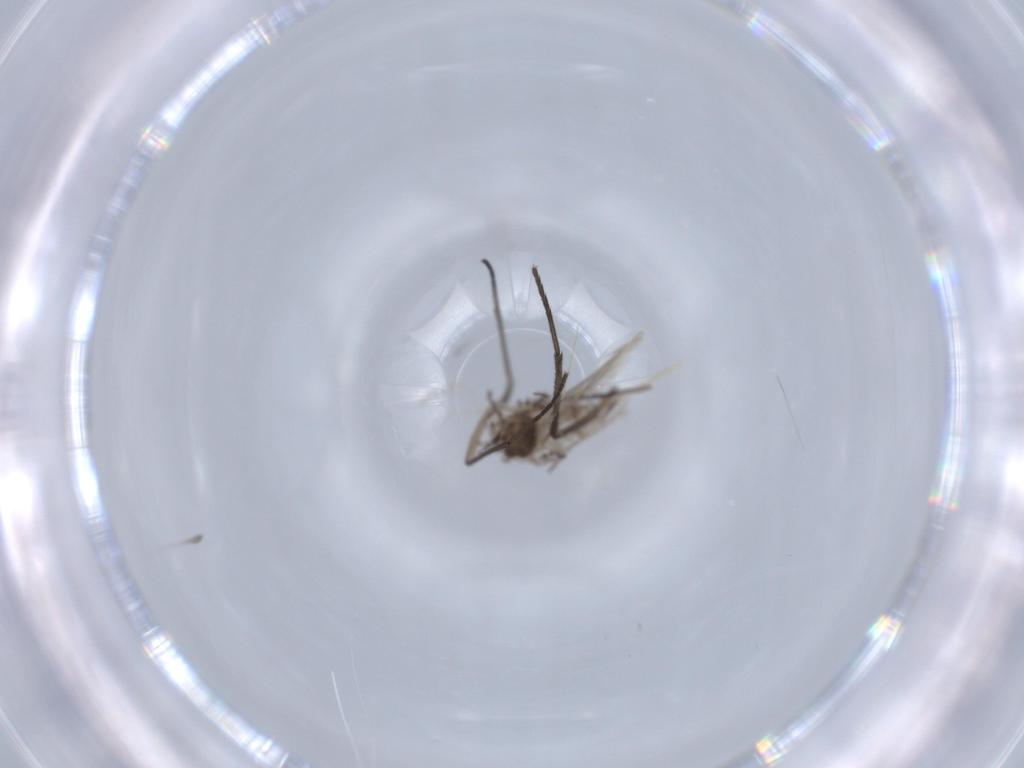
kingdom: Animalia
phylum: Arthropoda
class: Insecta
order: Diptera
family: Cecidomyiidae
